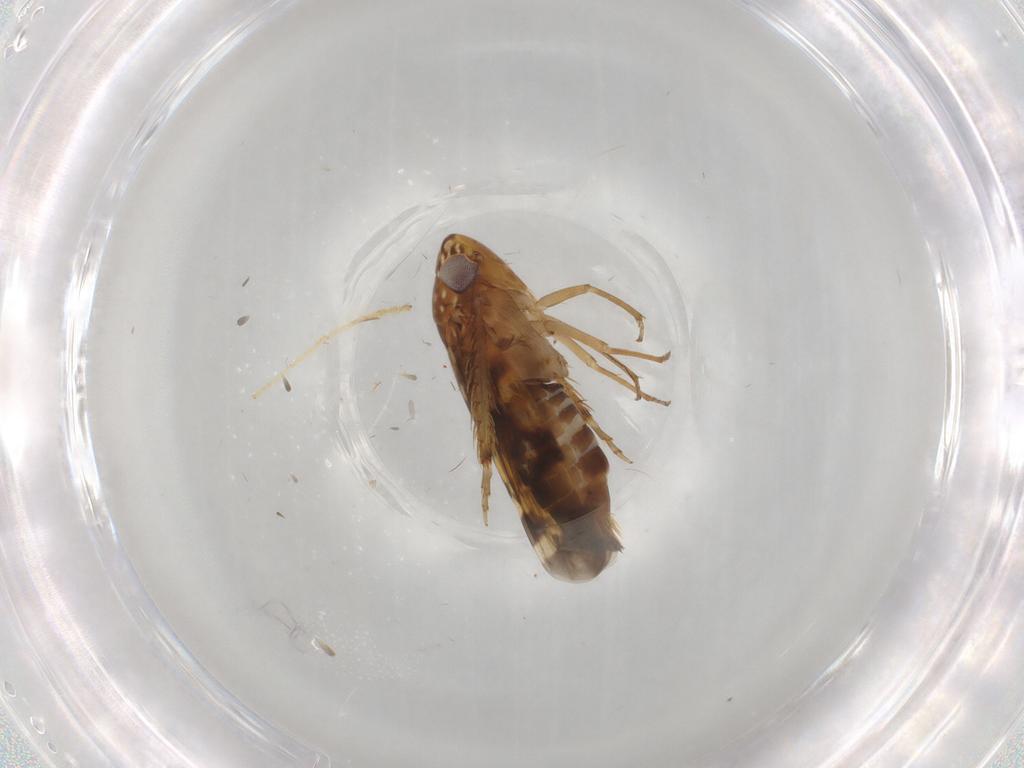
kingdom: Animalia
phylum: Arthropoda
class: Insecta
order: Hemiptera
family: Cicadellidae
